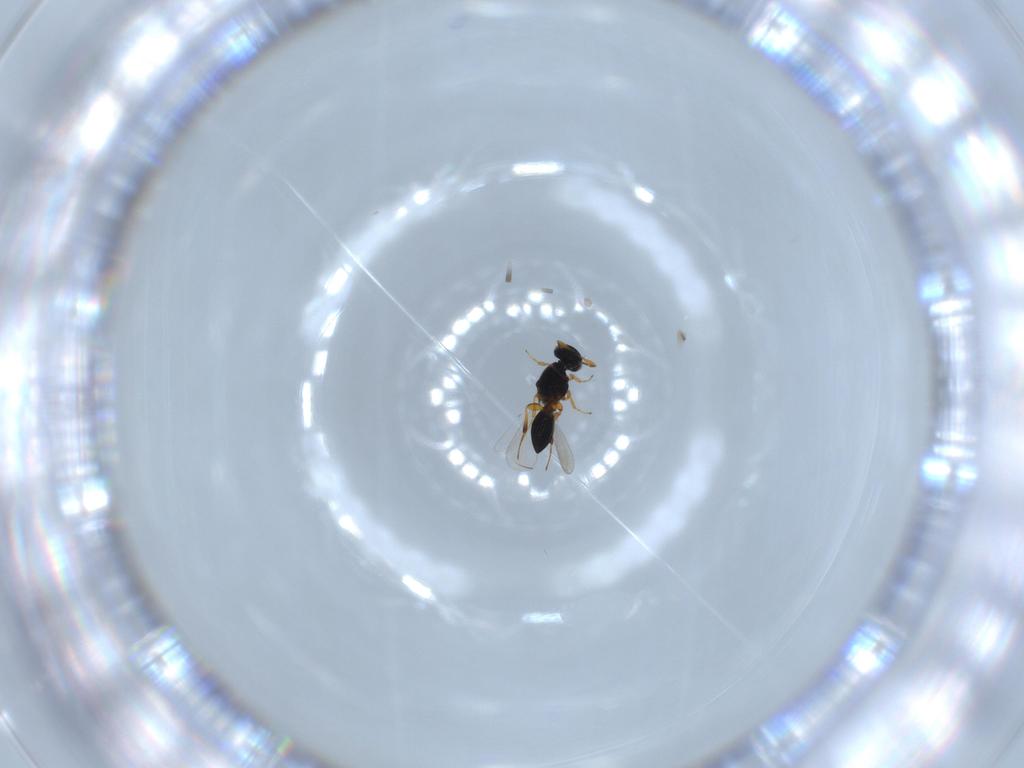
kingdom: Animalia
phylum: Arthropoda
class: Insecta
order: Hymenoptera
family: Platygastridae
